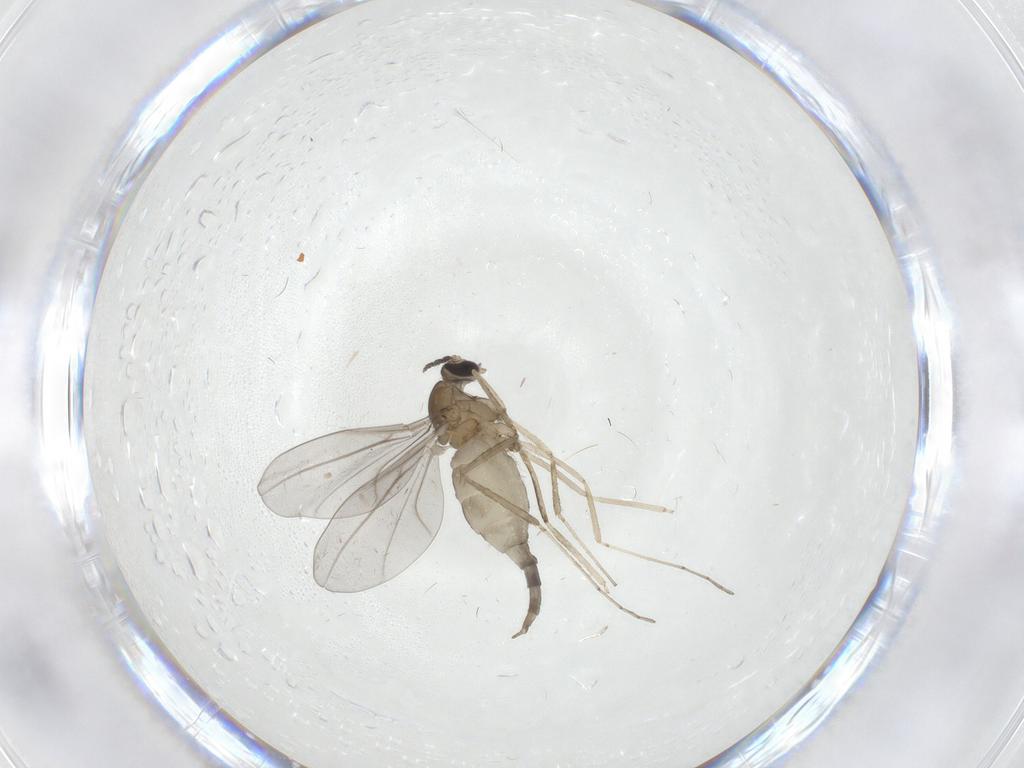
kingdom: Animalia
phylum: Arthropoda
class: Insecta
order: Diptera
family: Cecidomyiidae
